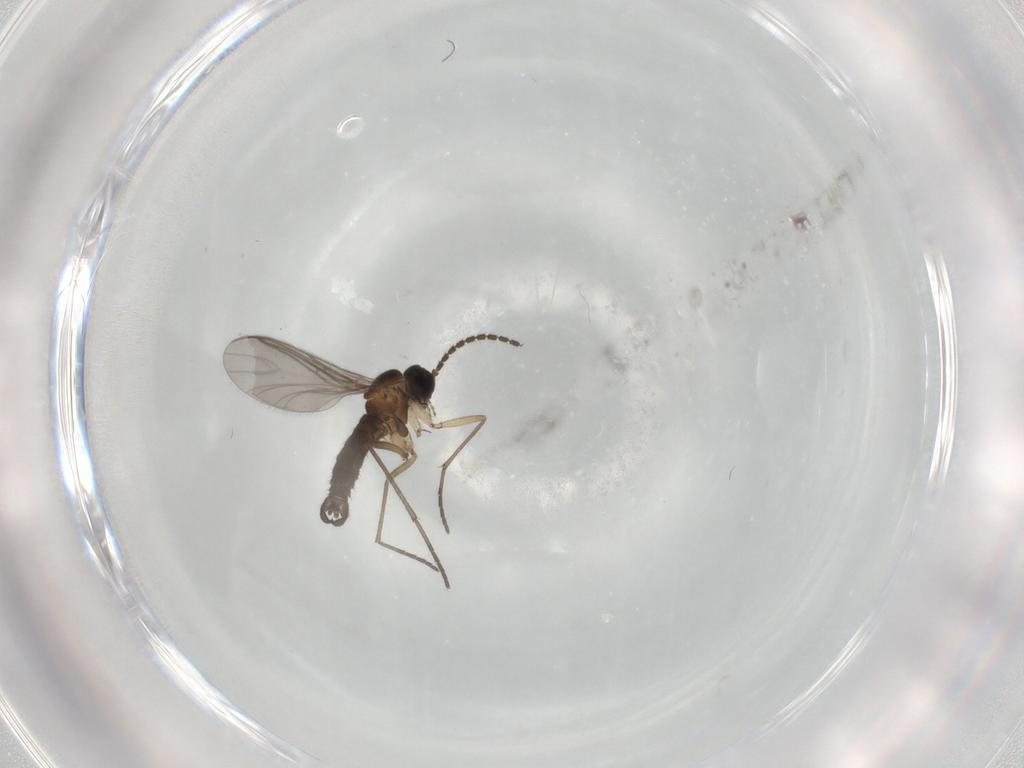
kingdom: Animalia
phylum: Arthropoda
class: Insecta
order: Diptera
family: Sciaridae
